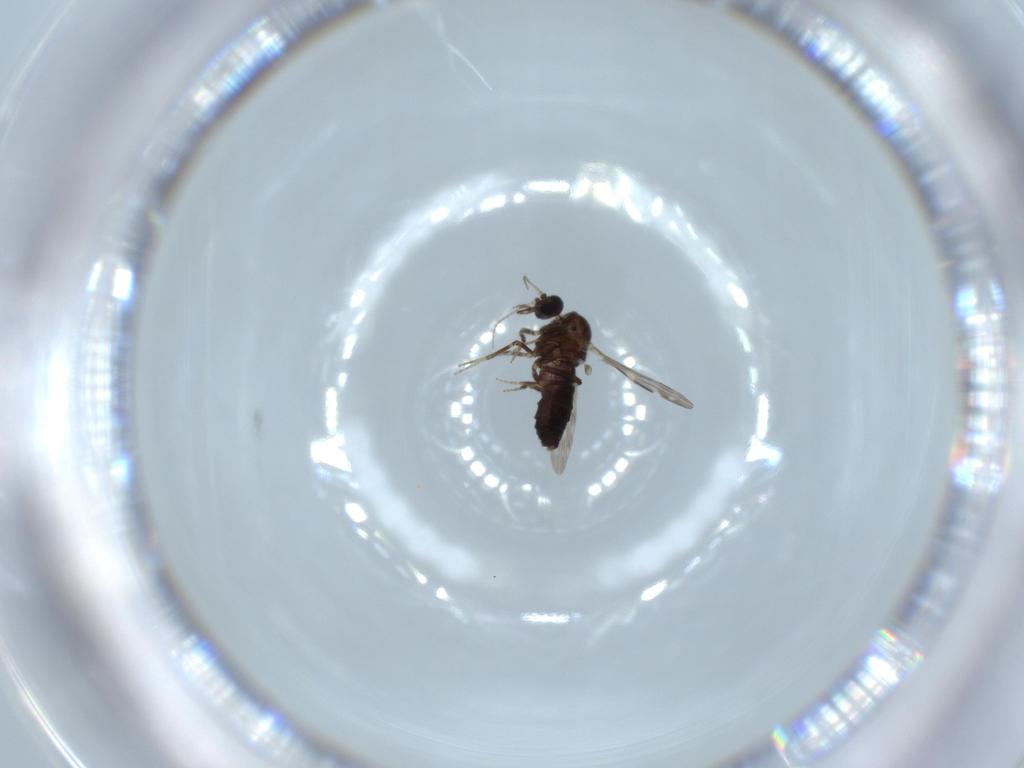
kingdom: Animalia
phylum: Arthropoda
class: Insecta
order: Diptera
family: Ceratopogonidae
